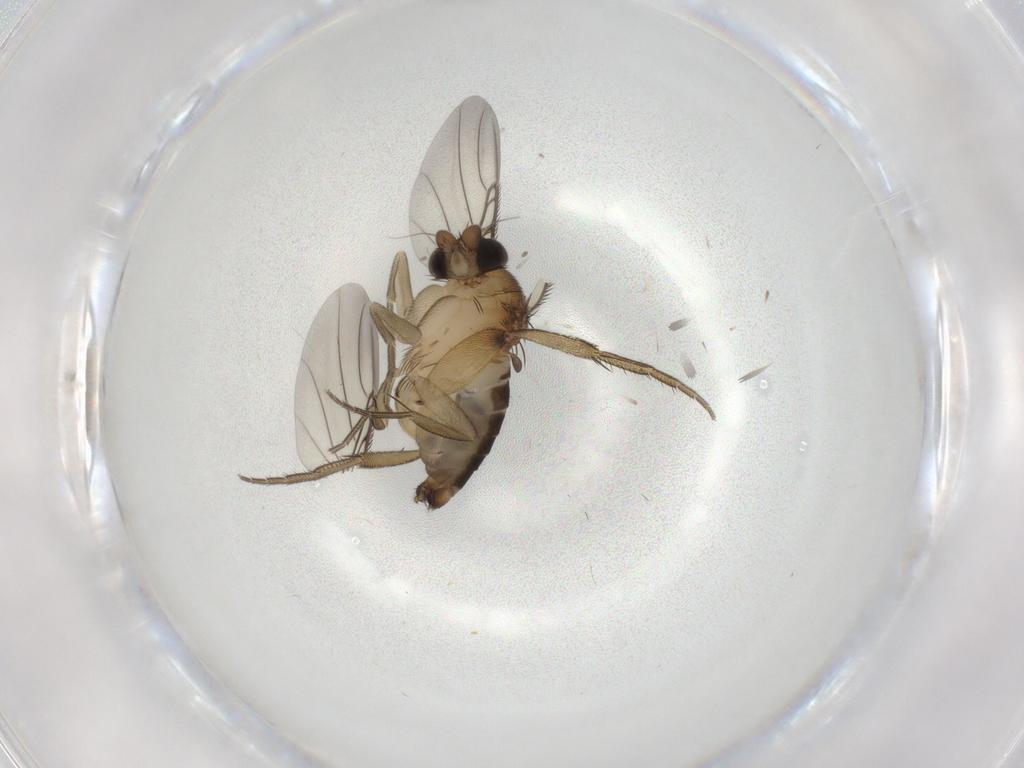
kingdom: Animalia
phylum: Arthropoda
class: Insecta
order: Diptera
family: Phoridae
